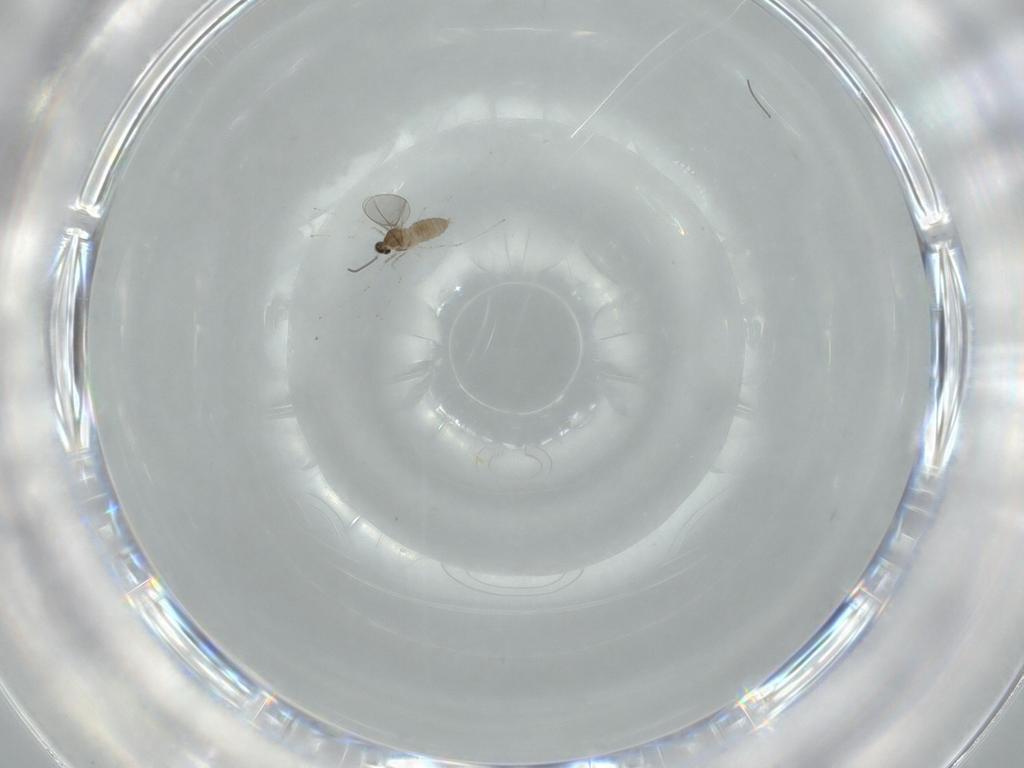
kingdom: Animalia
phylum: Arthropoda
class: Insecta
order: Diptera
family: Cecidomyiidae
